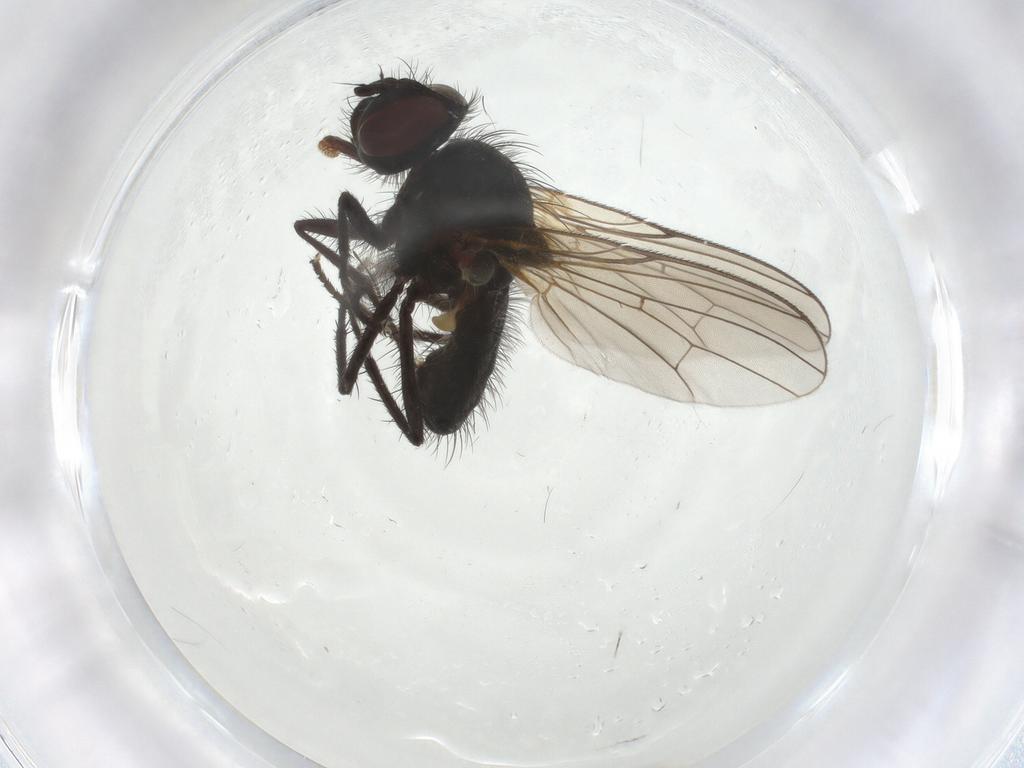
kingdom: Animalia
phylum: Arthropoda
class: Insecta
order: Diptera
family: Anthomyiidae
